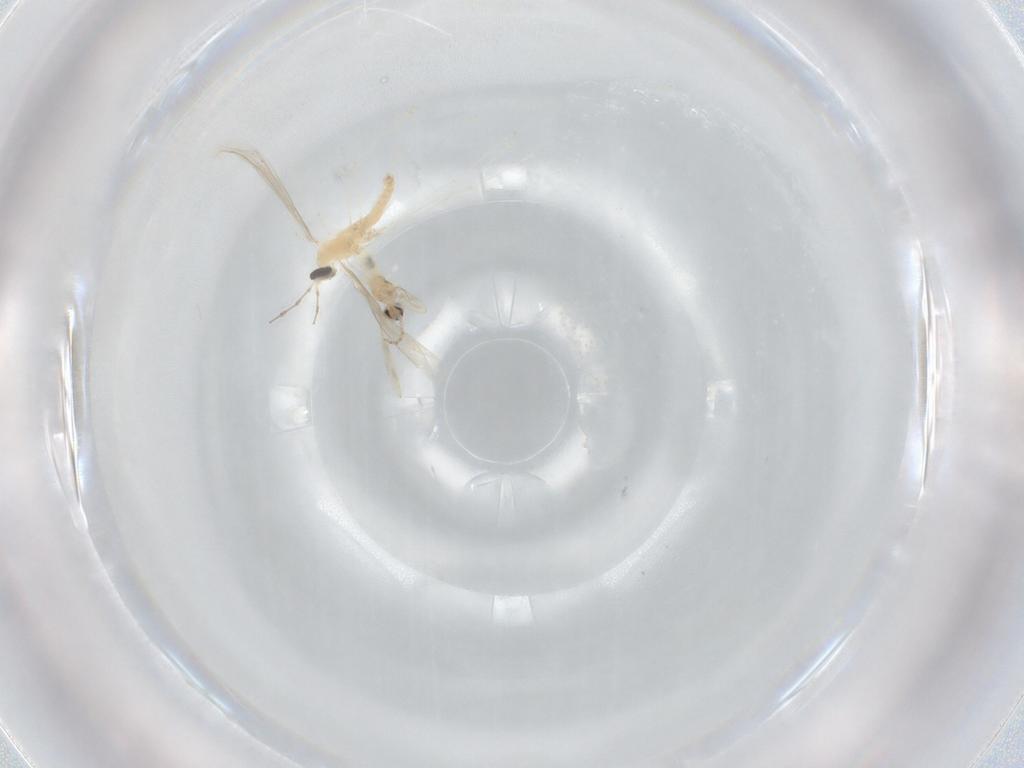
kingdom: Animalia
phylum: Arthropoda
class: Insecta
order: Diptera
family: Cecidomyiidae
